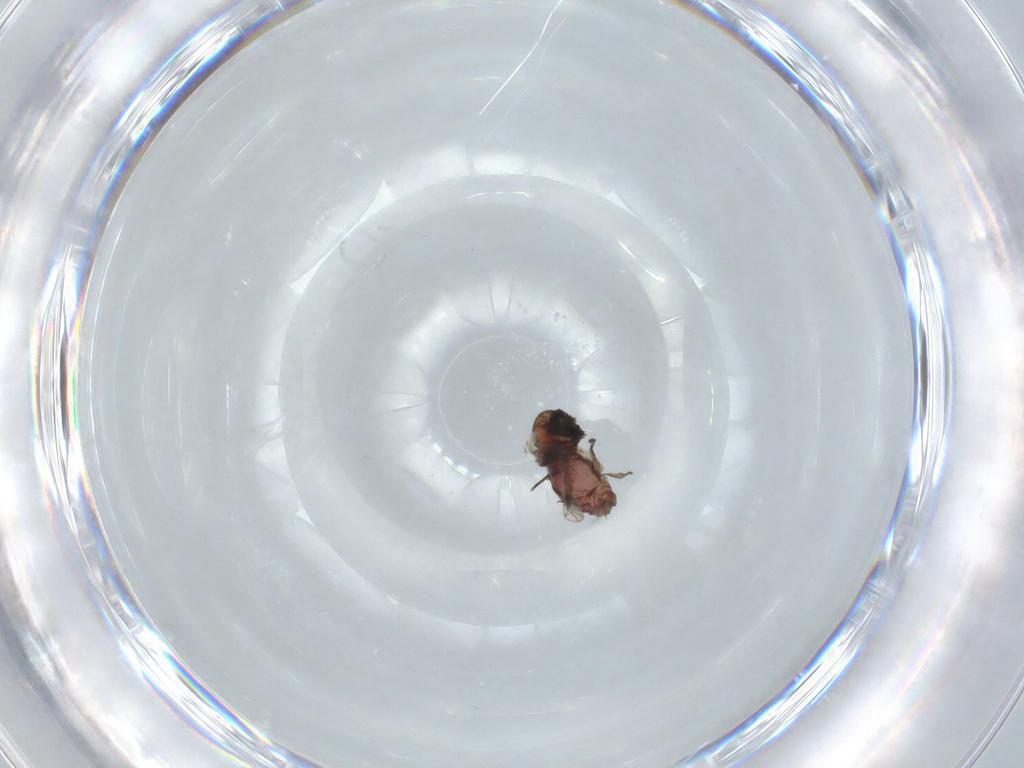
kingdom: Animalia
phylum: Arthropoda
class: Insecta
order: Diptera
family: Psychodidae
